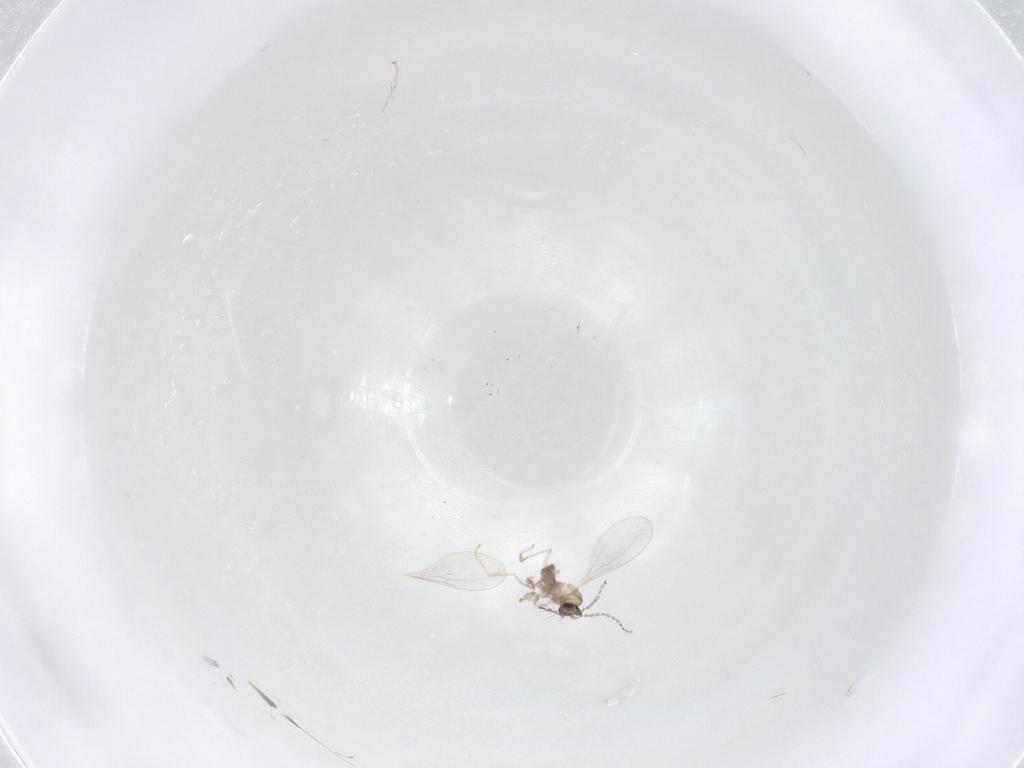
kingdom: Animalia
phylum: Arthropoda
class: Insecta
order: Diptera
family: Cecidomyiidae
